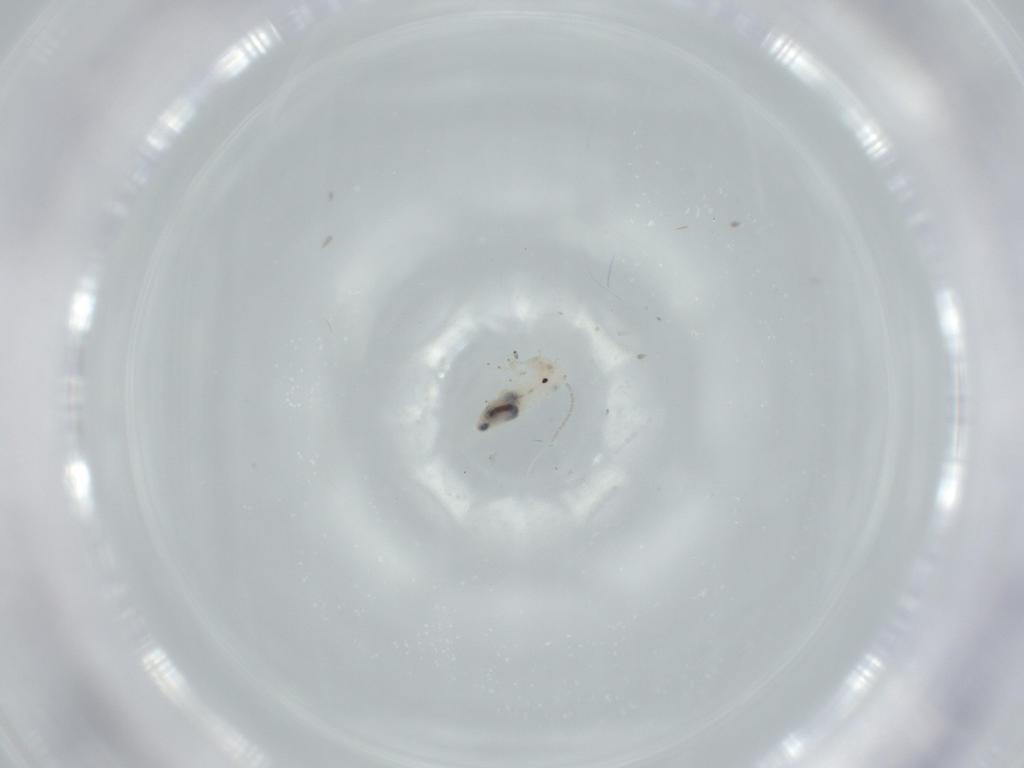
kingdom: Animalia
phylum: Arthropoda
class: Insecta
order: Psocodea
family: Caeciliusidae
